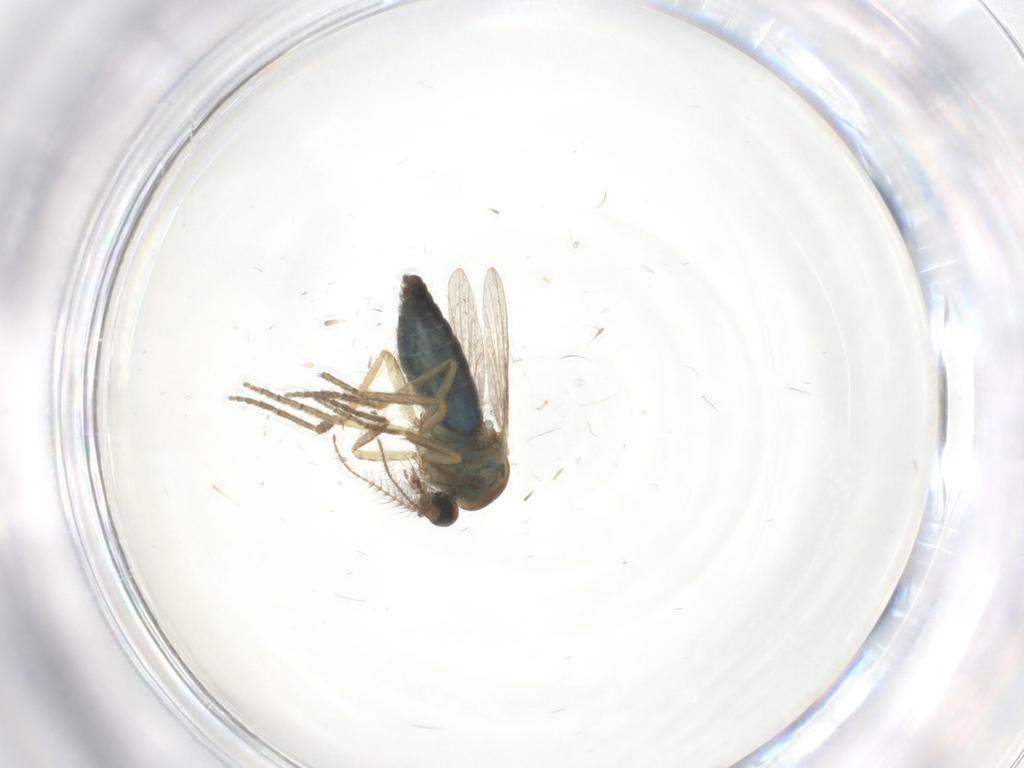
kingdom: Animalia
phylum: Arthropoda
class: Insecta
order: Diptera
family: Ceratopogonidae
